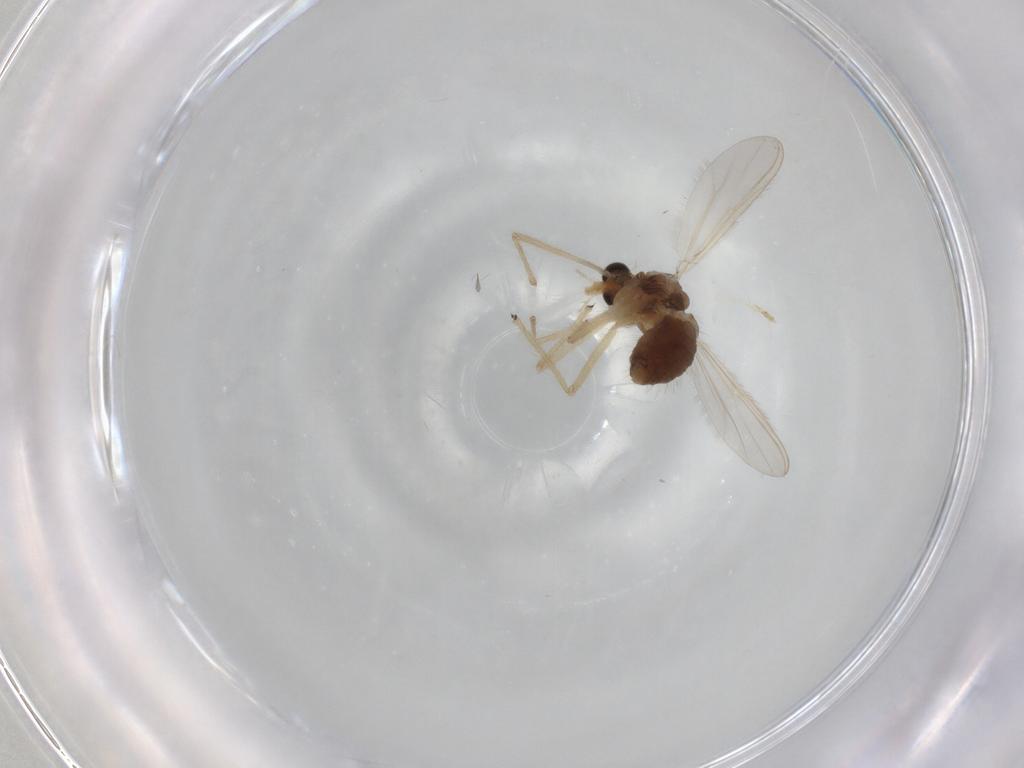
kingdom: Animalia
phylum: Arthropoda
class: Insecta
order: Diptera
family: Chironomidae
